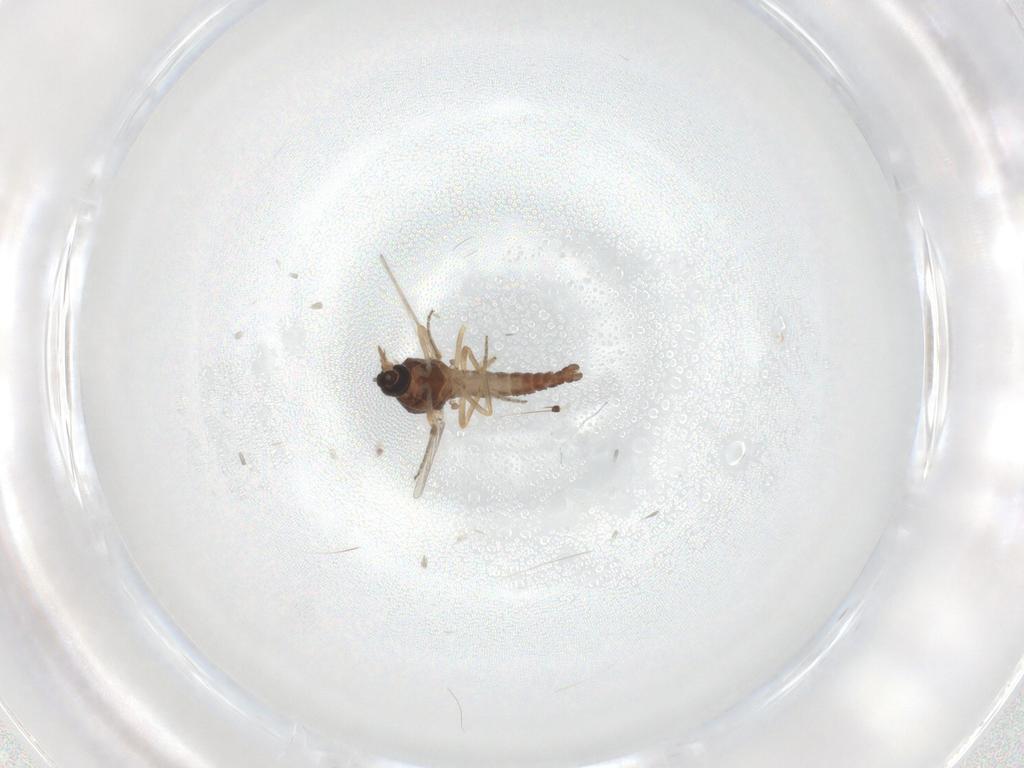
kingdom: Animalia
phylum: Arthropoda
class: Insecta
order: Diptera
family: Ceratopogonidae
